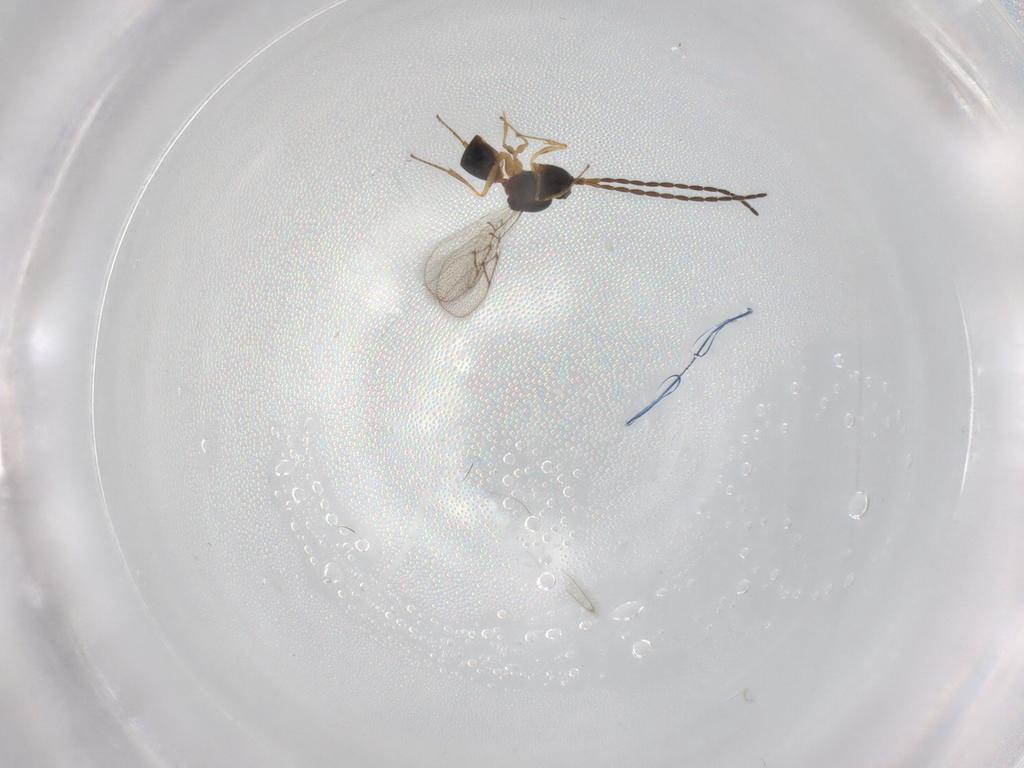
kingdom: Animalia
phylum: Arthropoda
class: Insecta
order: Hymenoptera
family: Figitidae
